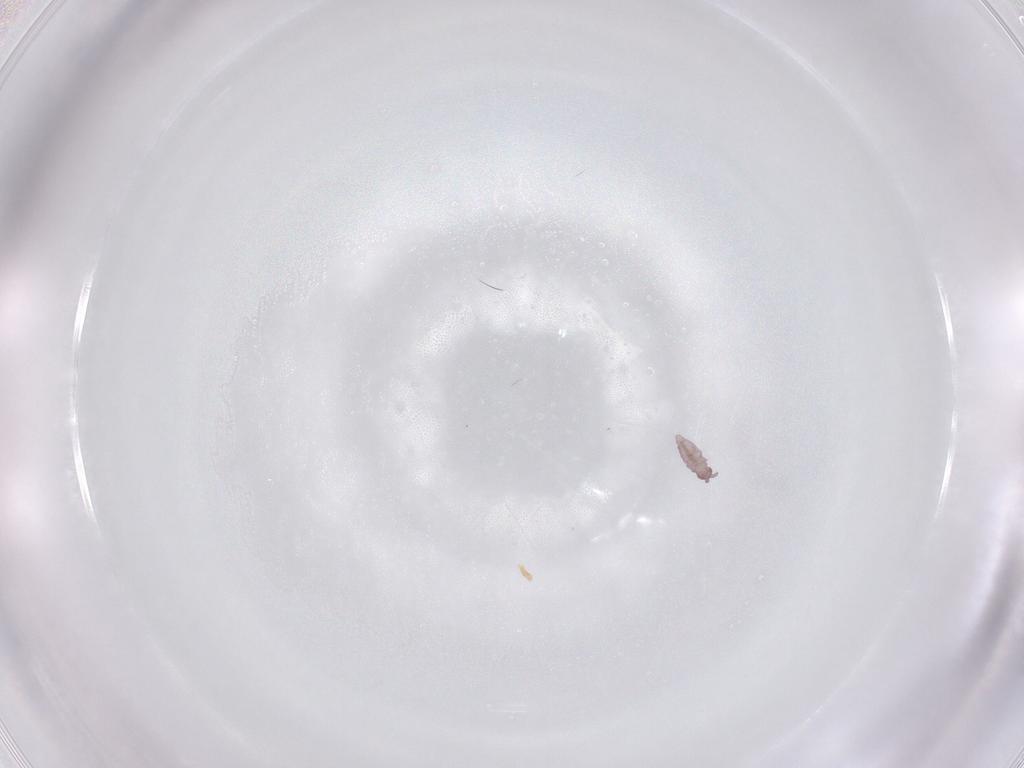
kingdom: Animalia
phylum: Arthropoda
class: Collembola
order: Poduromorpha
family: Hypogastruridae
